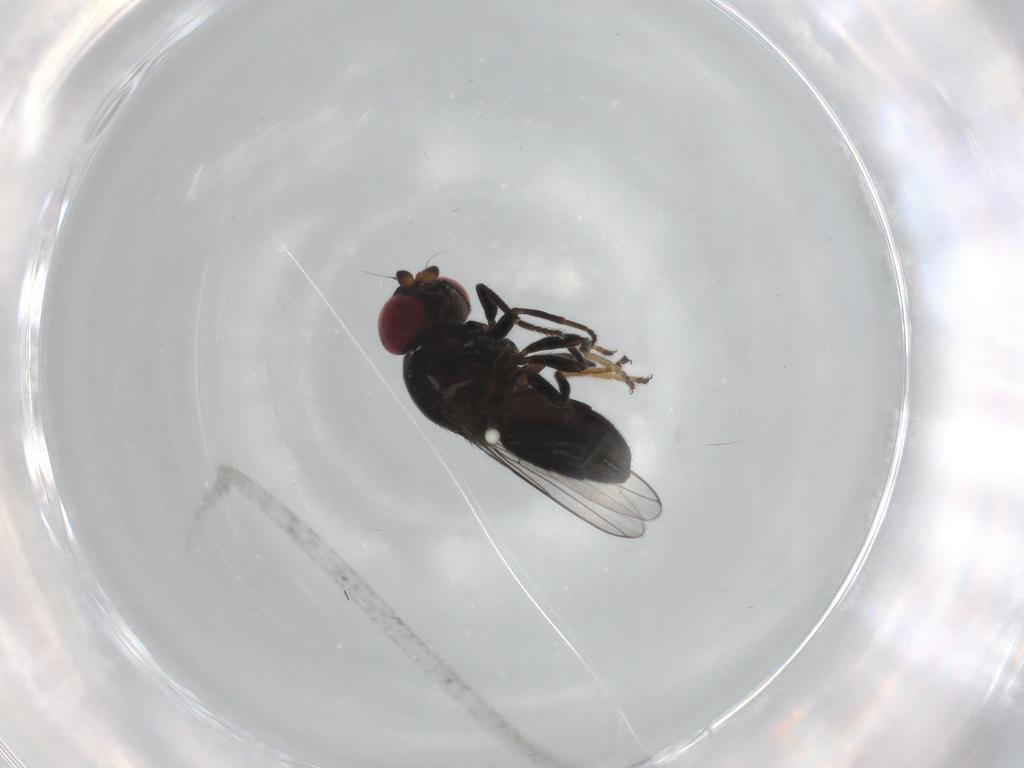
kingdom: Animalia
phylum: Arthropoda
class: Insecta
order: Diptera
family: Chloropidae
